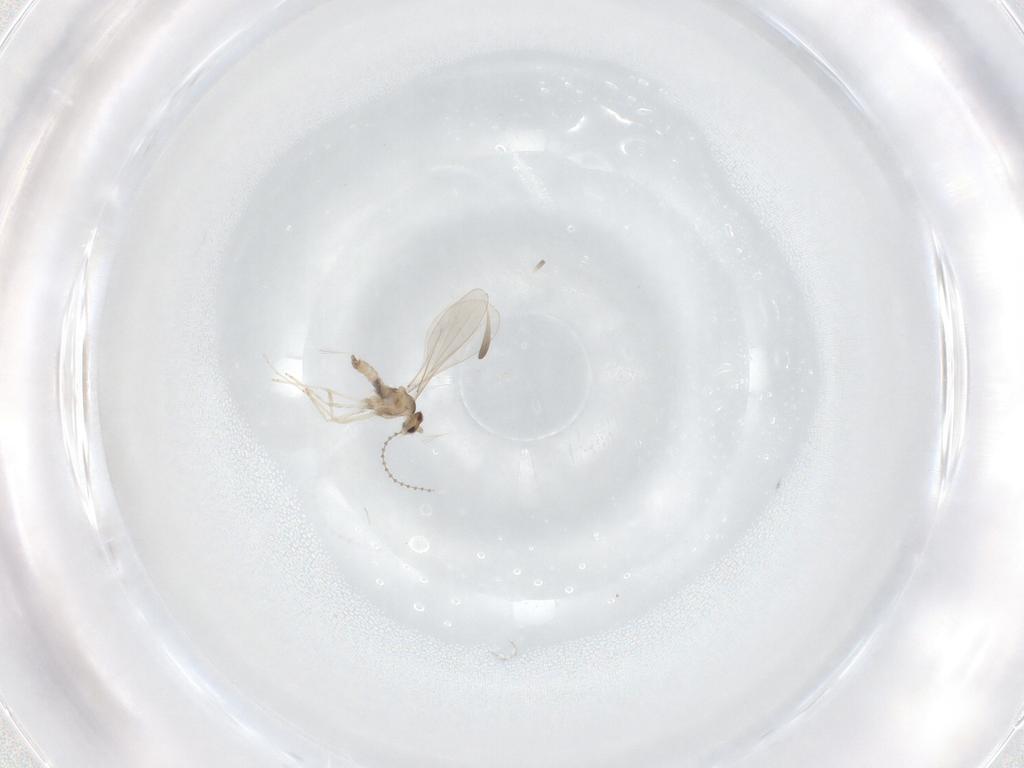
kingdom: Animalia
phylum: Arthropoda
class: Insecta
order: Diptera
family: Cecidomyiidae
